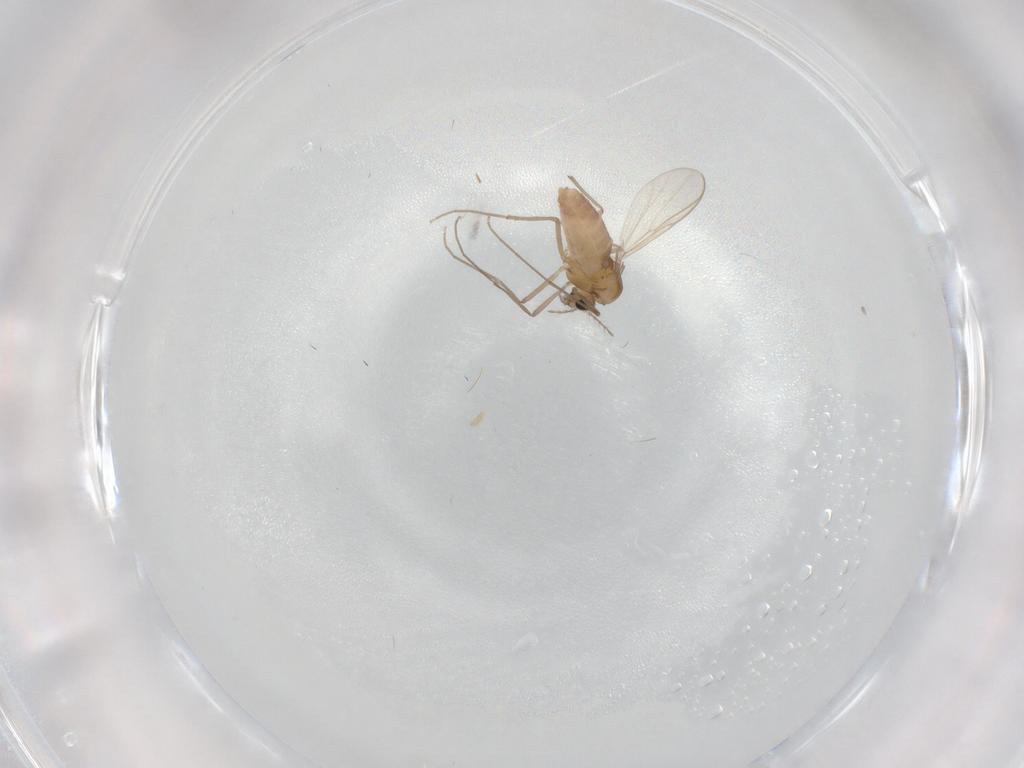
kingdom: Animalia
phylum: Arthropoda
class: Insecta
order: Diptera
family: Chironomidae
